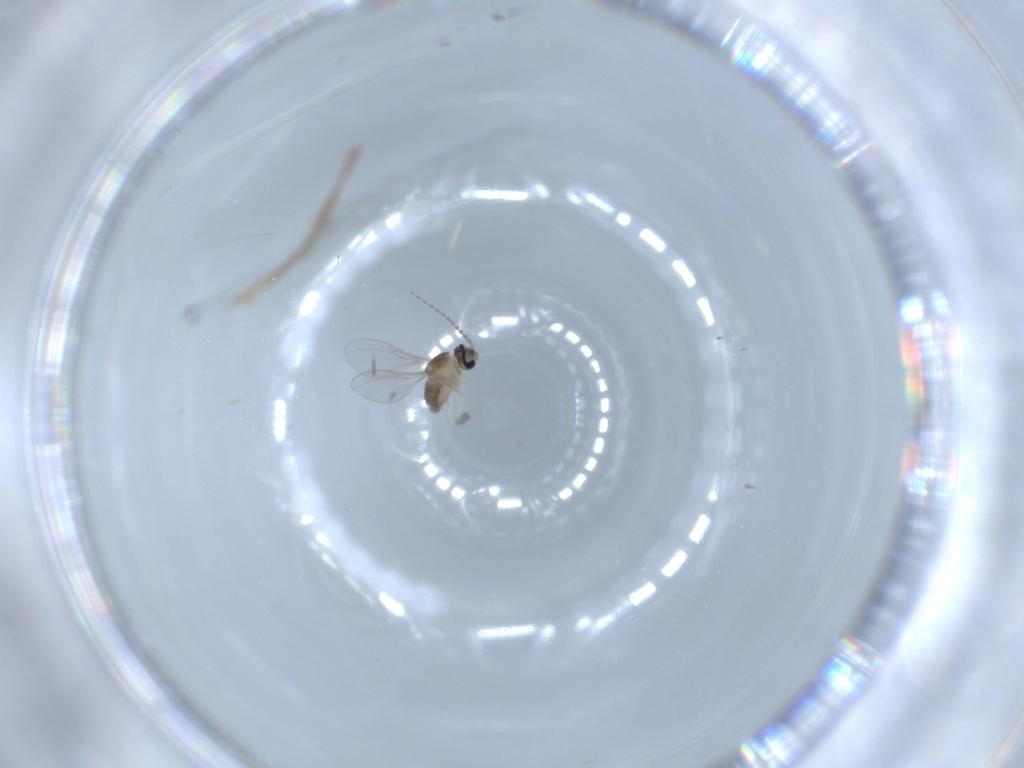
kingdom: Animalia
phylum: Arthropoda
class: Insecta
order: Diptera
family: Cecidomyiidae
